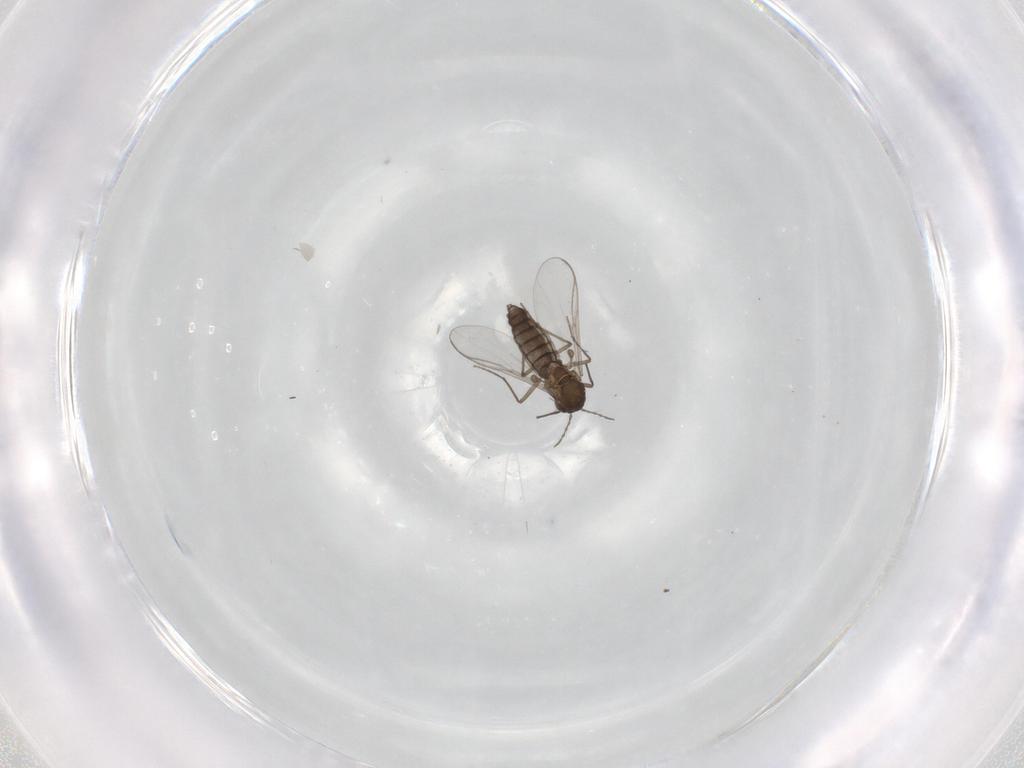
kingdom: Animalia
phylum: Arthropoda
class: Insecta
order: Diptera
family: Chironomidae
